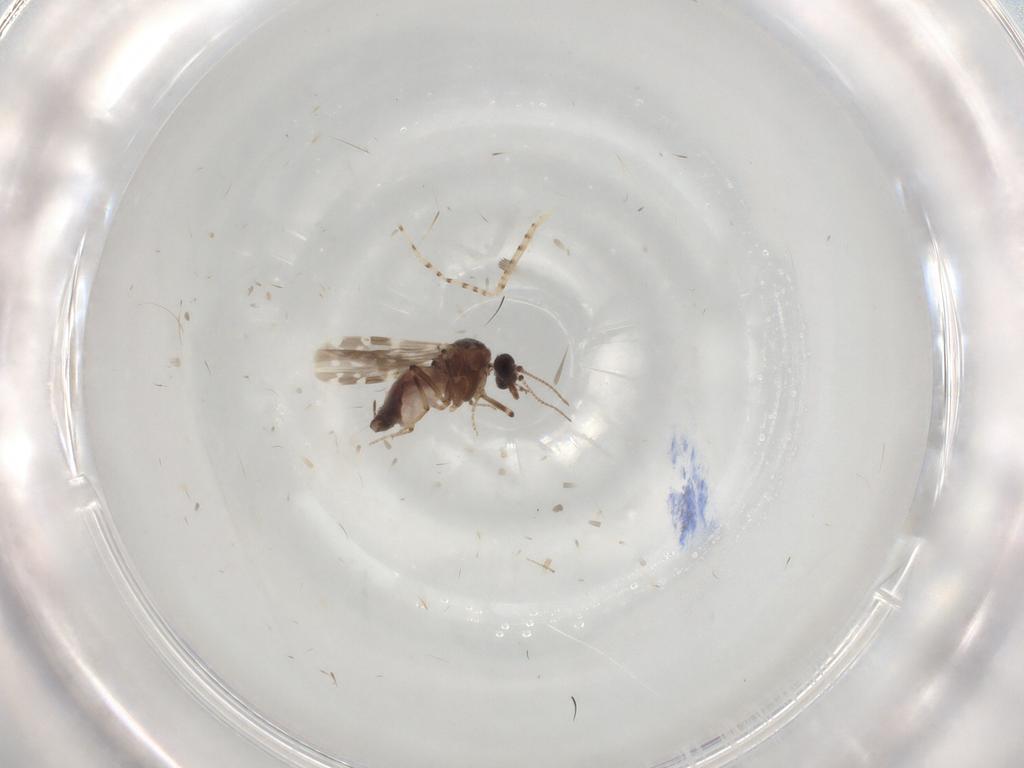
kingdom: Animalia
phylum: Arthropoda
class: Insecta
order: Diptera
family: Ceratopogonidae
